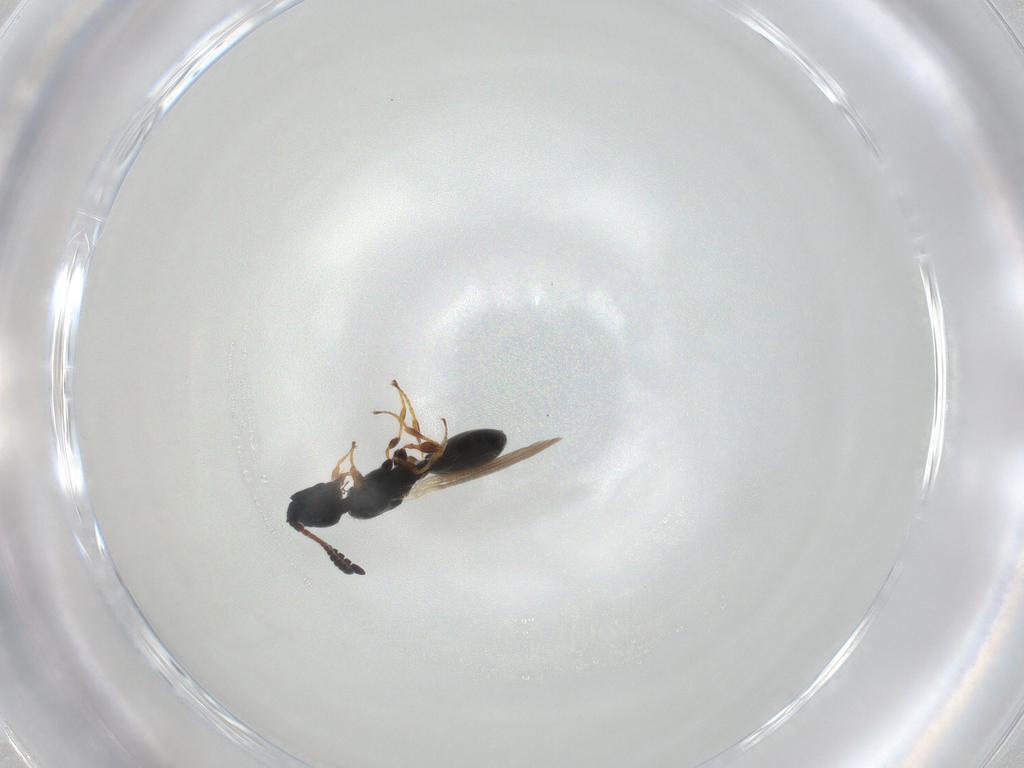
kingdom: Animalia
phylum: Arthropoda
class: Insecta
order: Hymenoptera
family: Diapriidae
